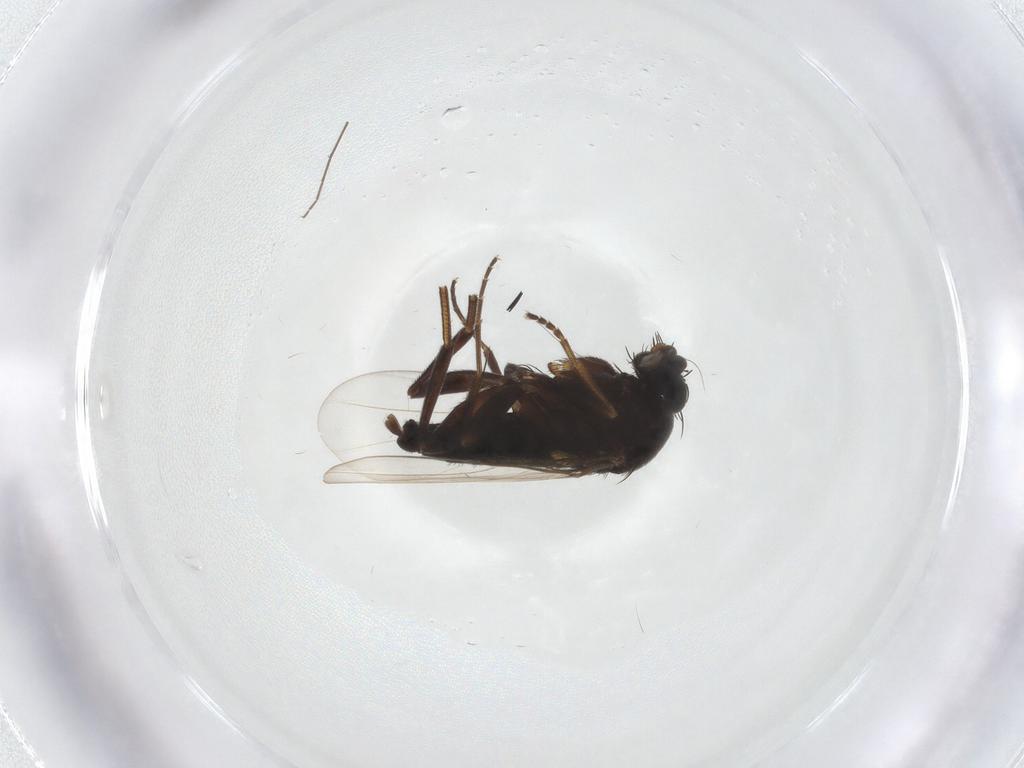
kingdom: Animalia
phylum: Arthropoda
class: Insecta
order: Diptera
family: Phoridae
